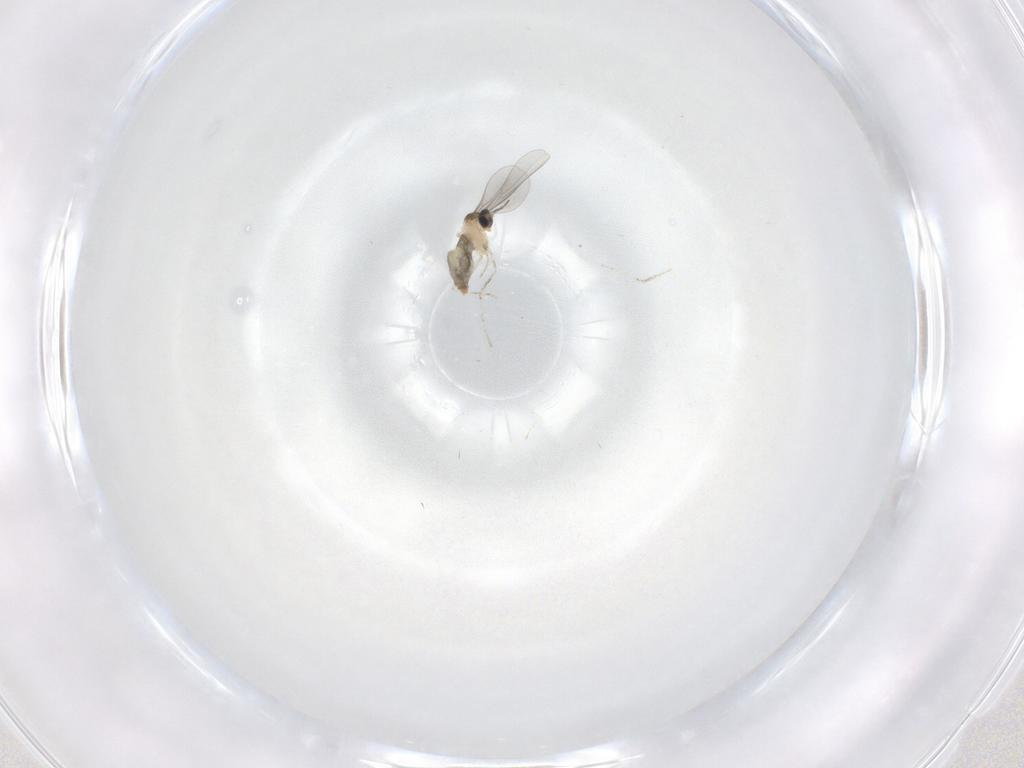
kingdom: Animalia
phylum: Arthropoda
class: Insecta
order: Diptera
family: Cecidomyiidae
